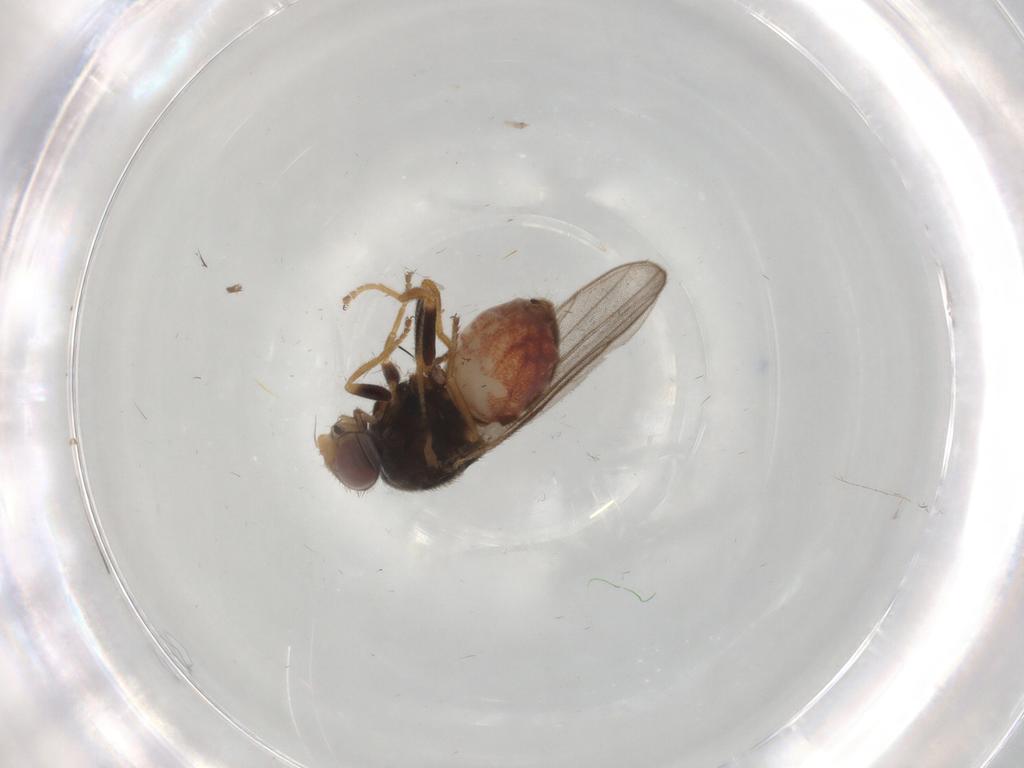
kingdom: Animalia
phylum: Arthropoda
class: Insecta
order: Diptera
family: Chloropidae
